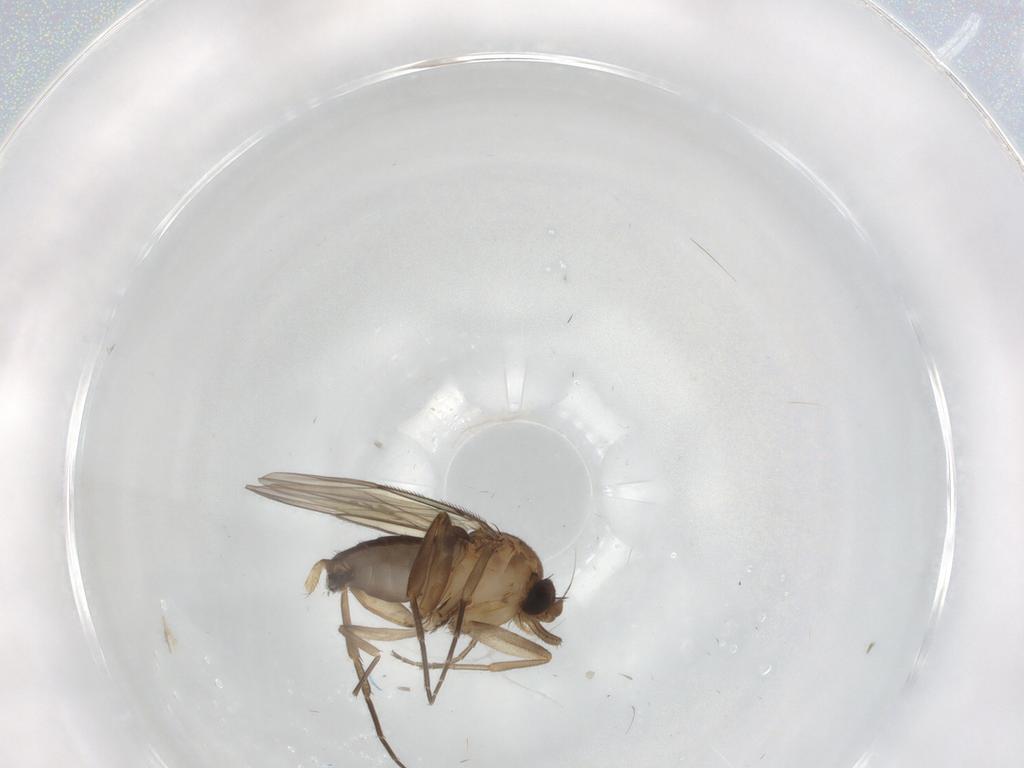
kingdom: Animalia
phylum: Arthropoda
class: Insecta
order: Diptera
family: Phoridae
